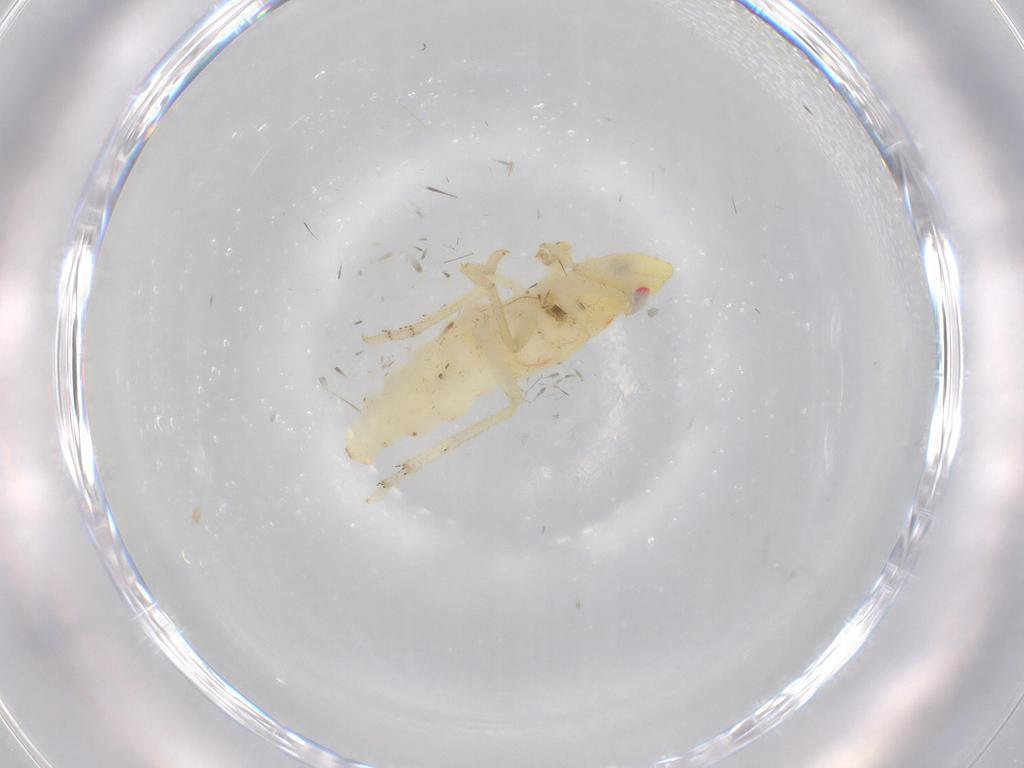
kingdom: Animalia
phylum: Arthropoda
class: Insecta
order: Hemiptera
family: Tropiduchidae
